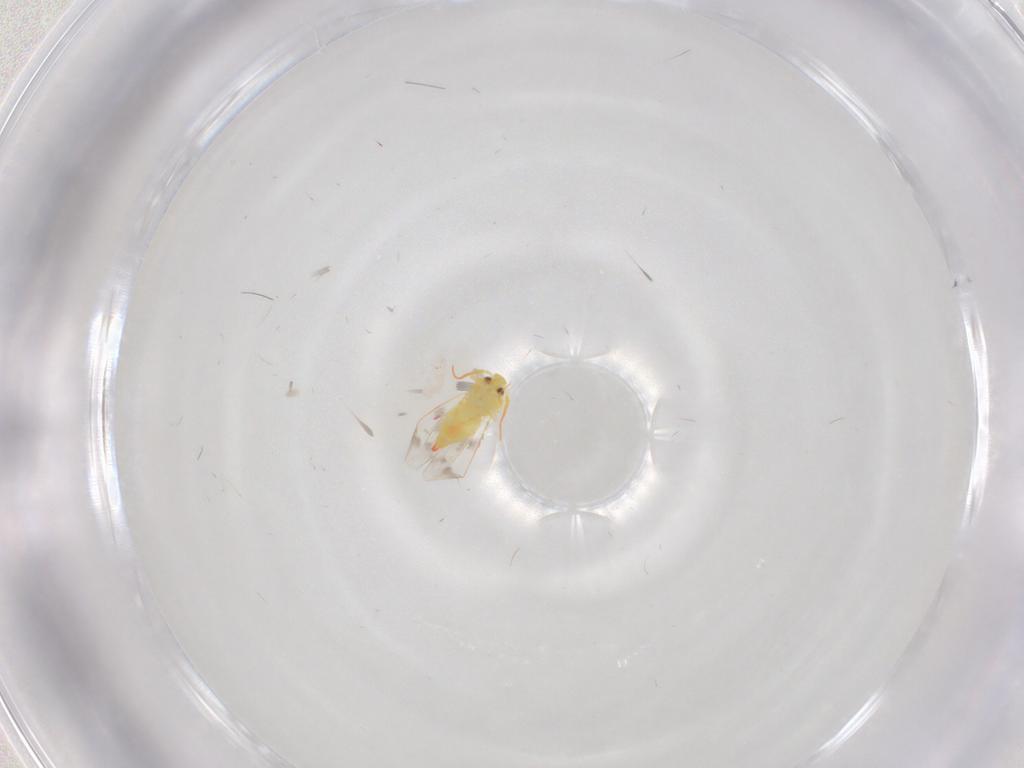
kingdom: Animalia
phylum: Arthropoda
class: Insecta
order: Hemiptera
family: Aleyrodidae
